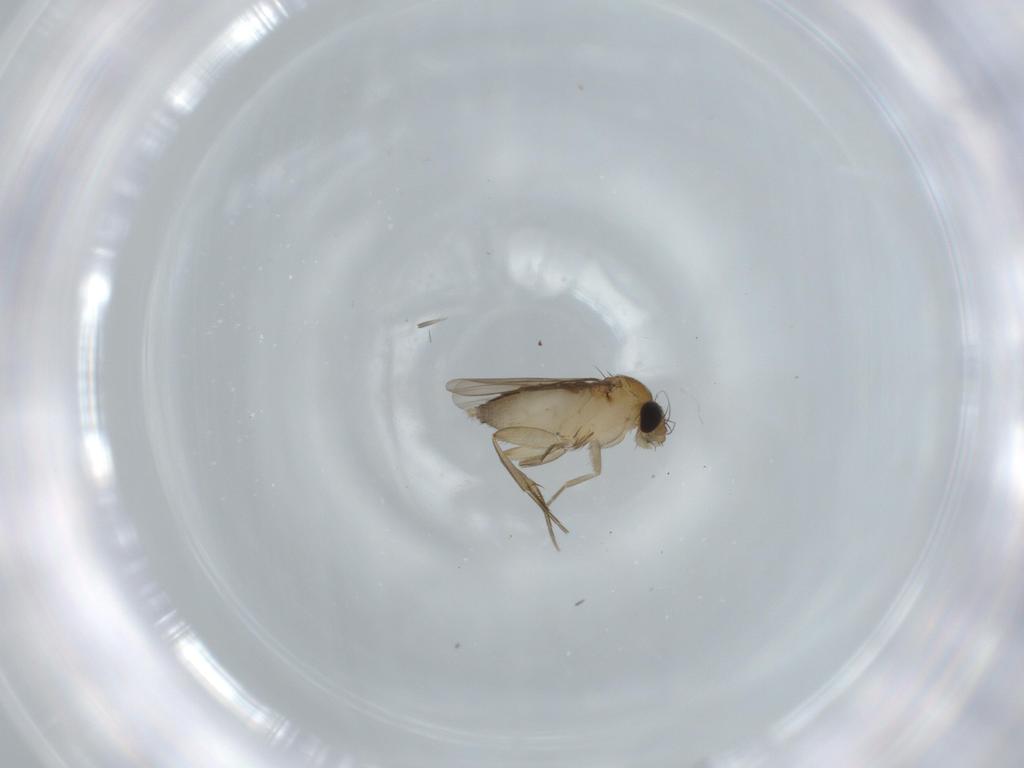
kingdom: Animalia
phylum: Arthropoda
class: Insecta
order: Diptera
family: Phoridae
